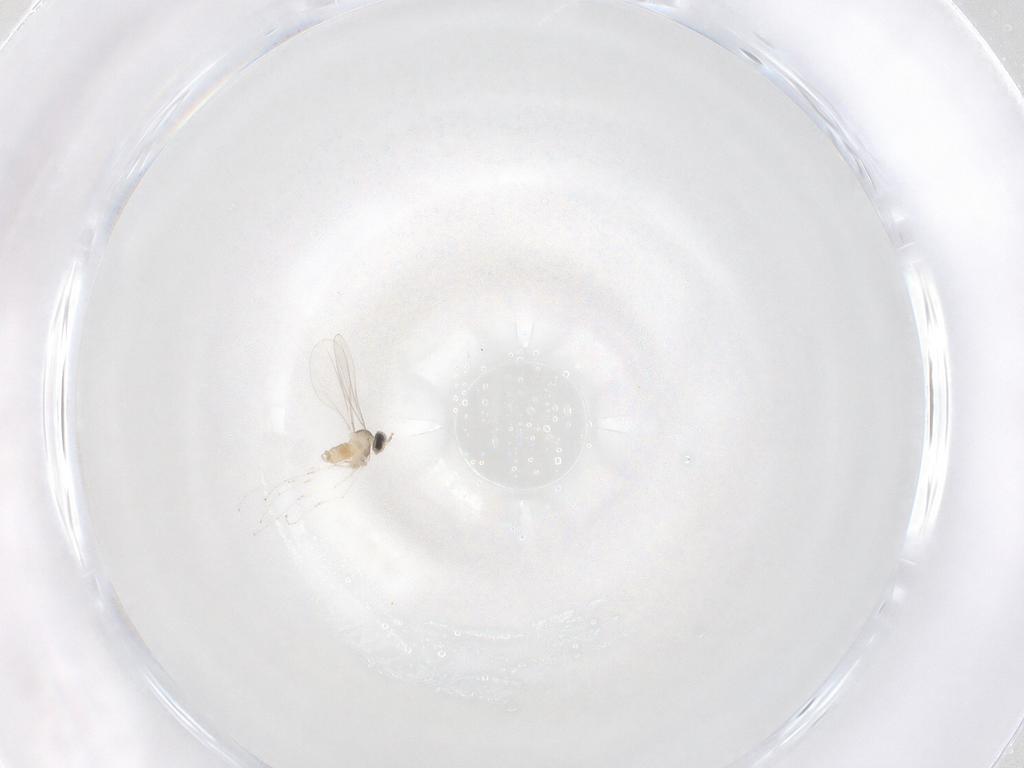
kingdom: Animalia
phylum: Arthropoda
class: Insecta
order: Diptera
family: Cecidomyiidae
